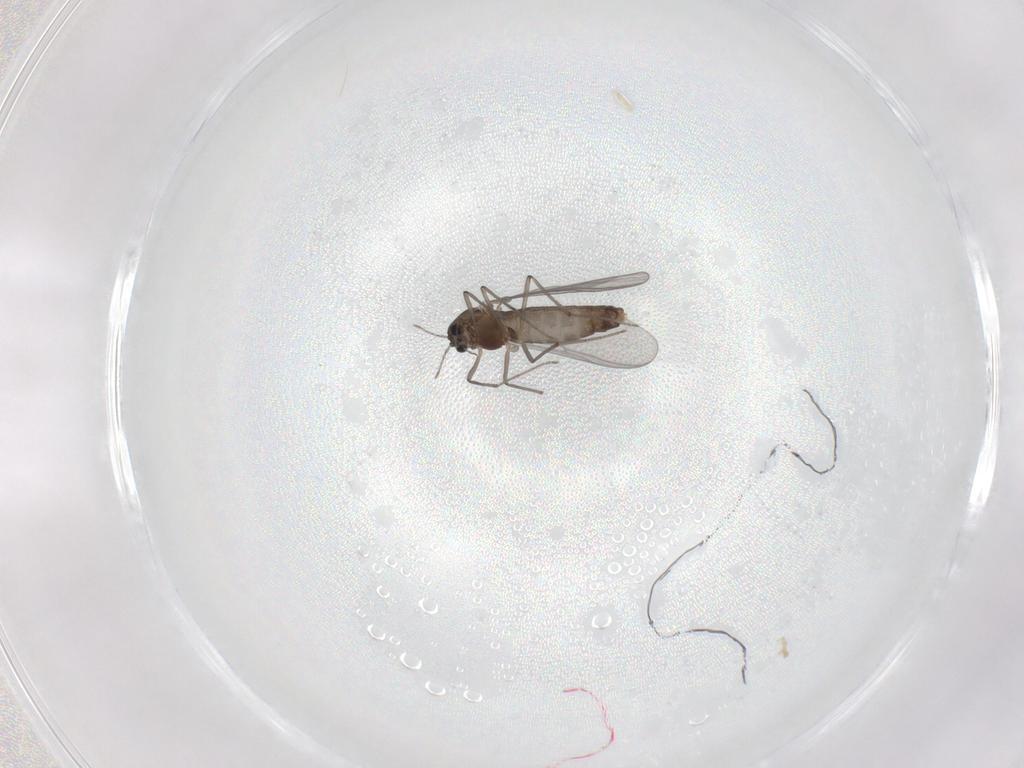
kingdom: Animalia
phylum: Arthropoda
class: Insecta
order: Diptera
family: Chironomidae
